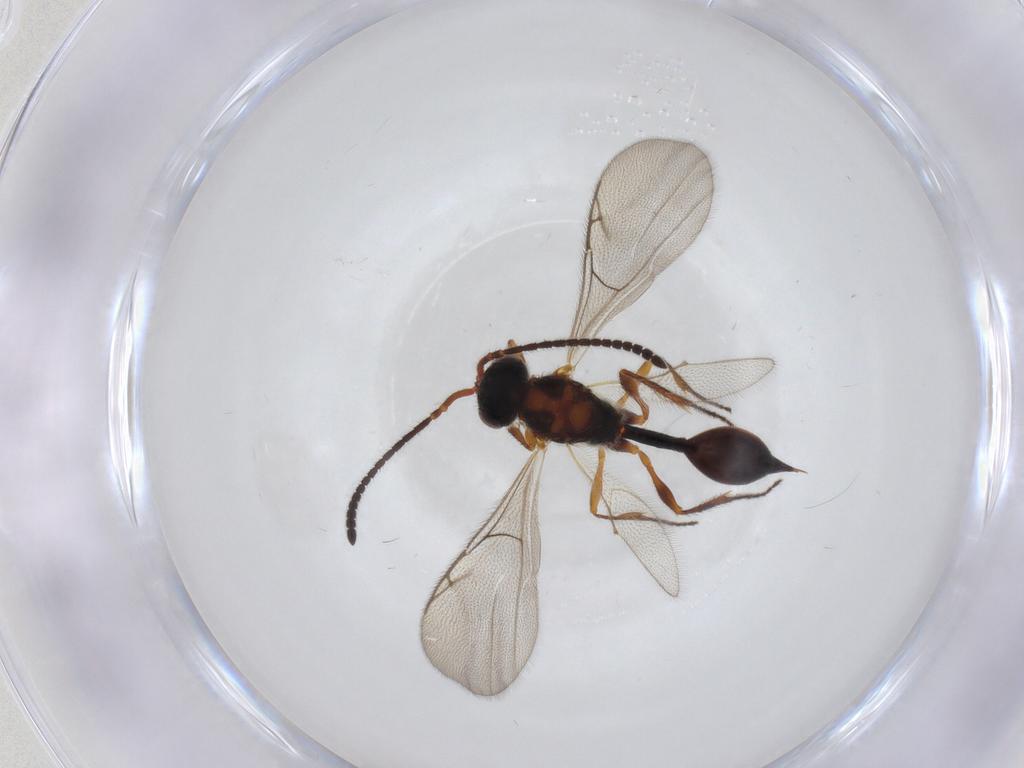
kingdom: Animalia
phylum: Arthropoda
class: Insecta
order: Hymenoptera
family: Diapriidae
